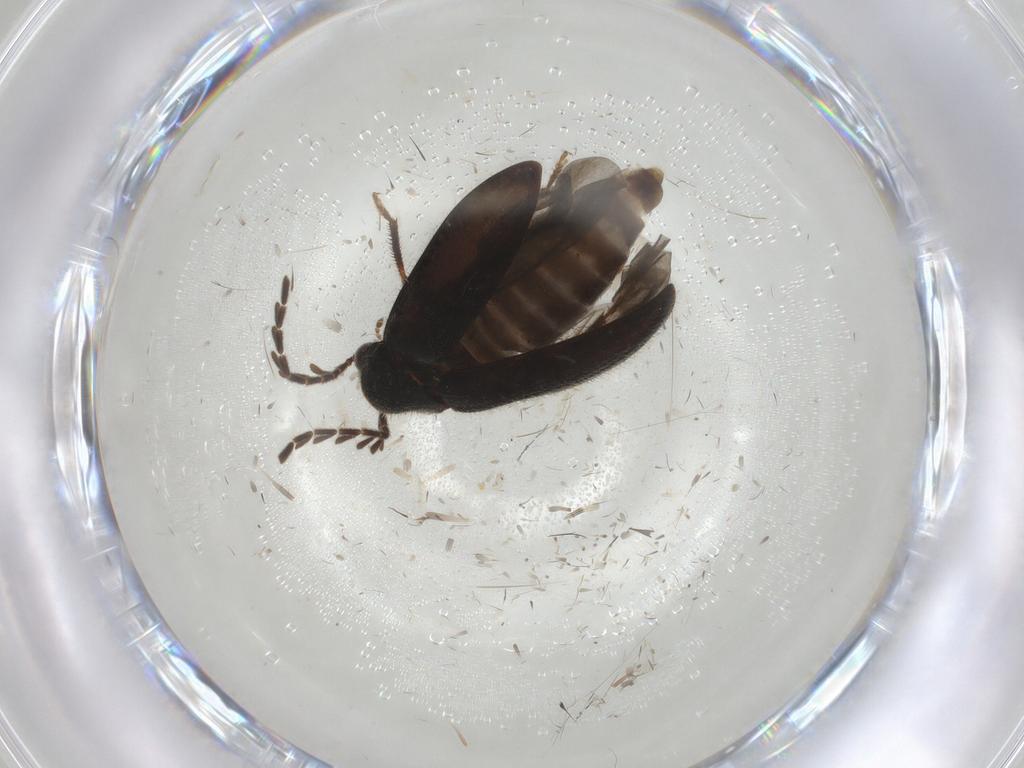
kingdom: Animalia
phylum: Arthropoda
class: Insecta
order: Coleoptera
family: Ptilodactylidae
